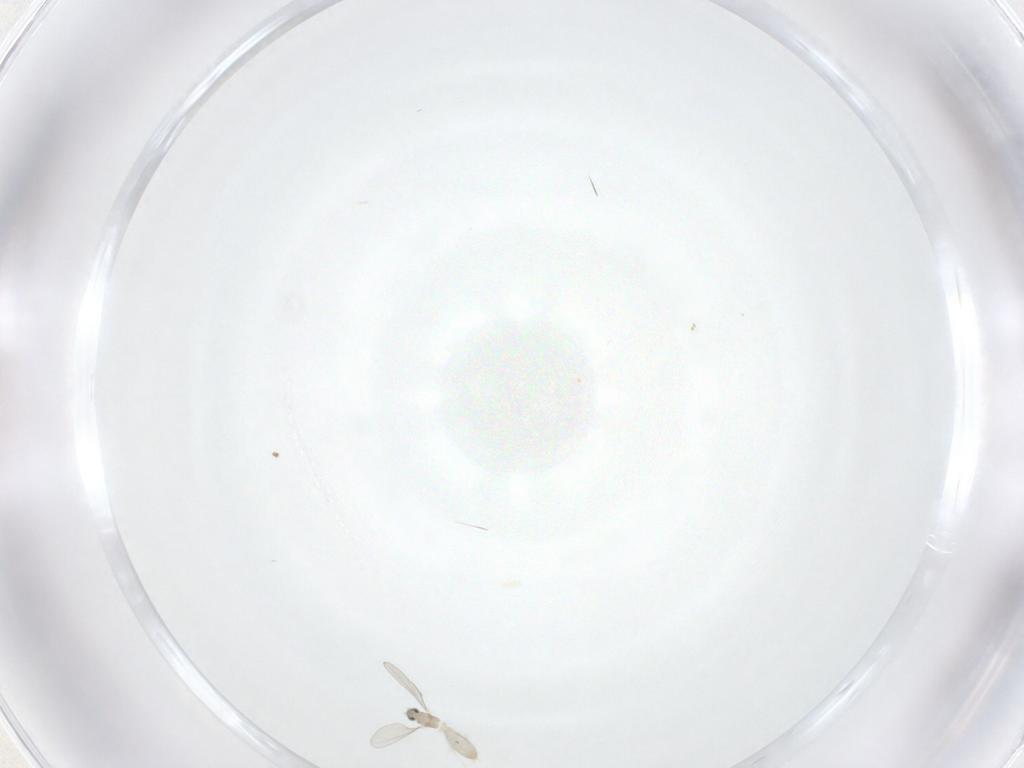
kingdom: Animalia
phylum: Arthropoda
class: Insecta
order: Diptera
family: Cecidomyiidae
